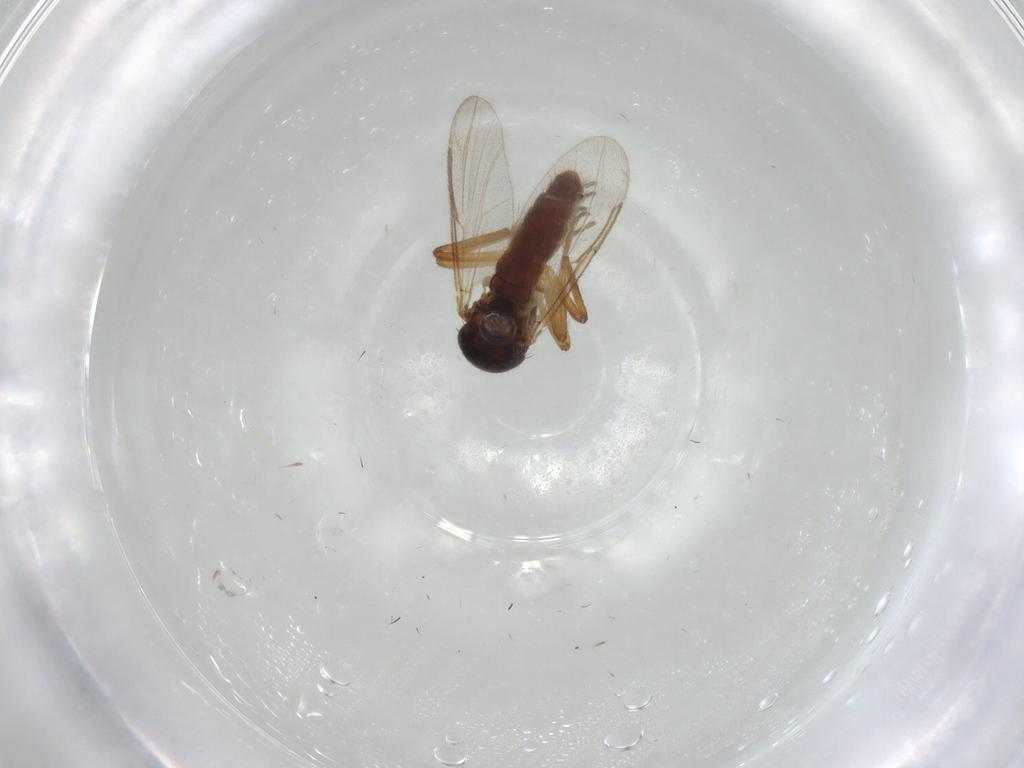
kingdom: Animalia
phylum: Arthropoda
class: Insecta
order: Diptera
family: Ceratopogonidae
